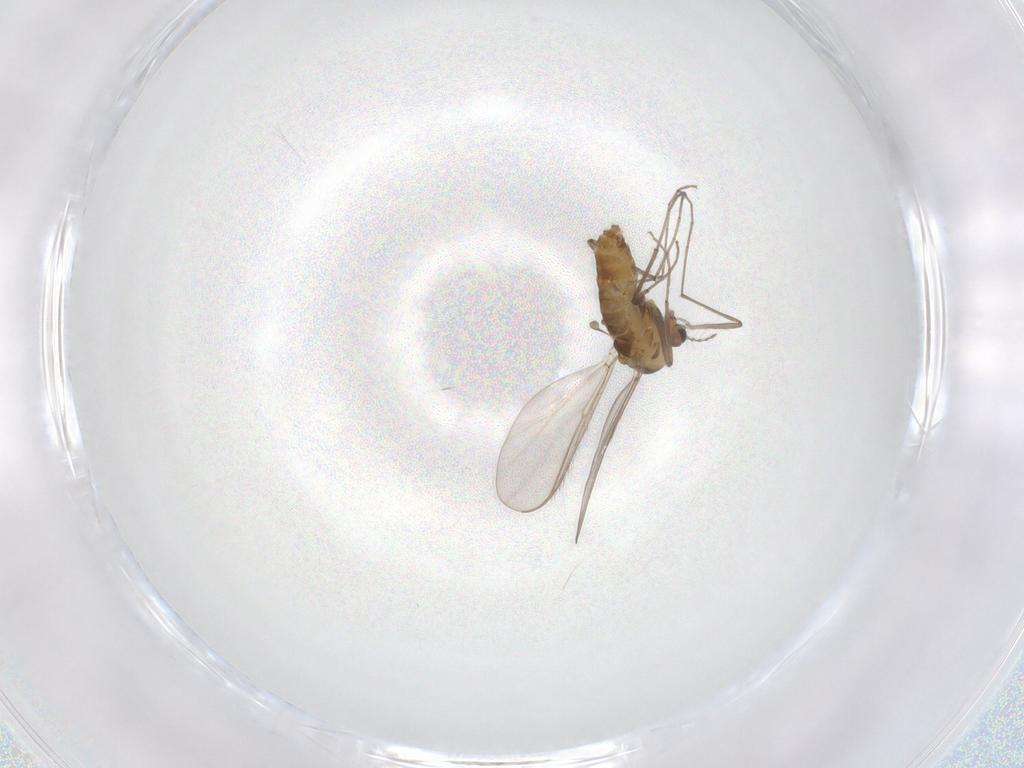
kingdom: Animalia
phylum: Arthropoda
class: Insecta
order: Diptera
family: Chironomidae
